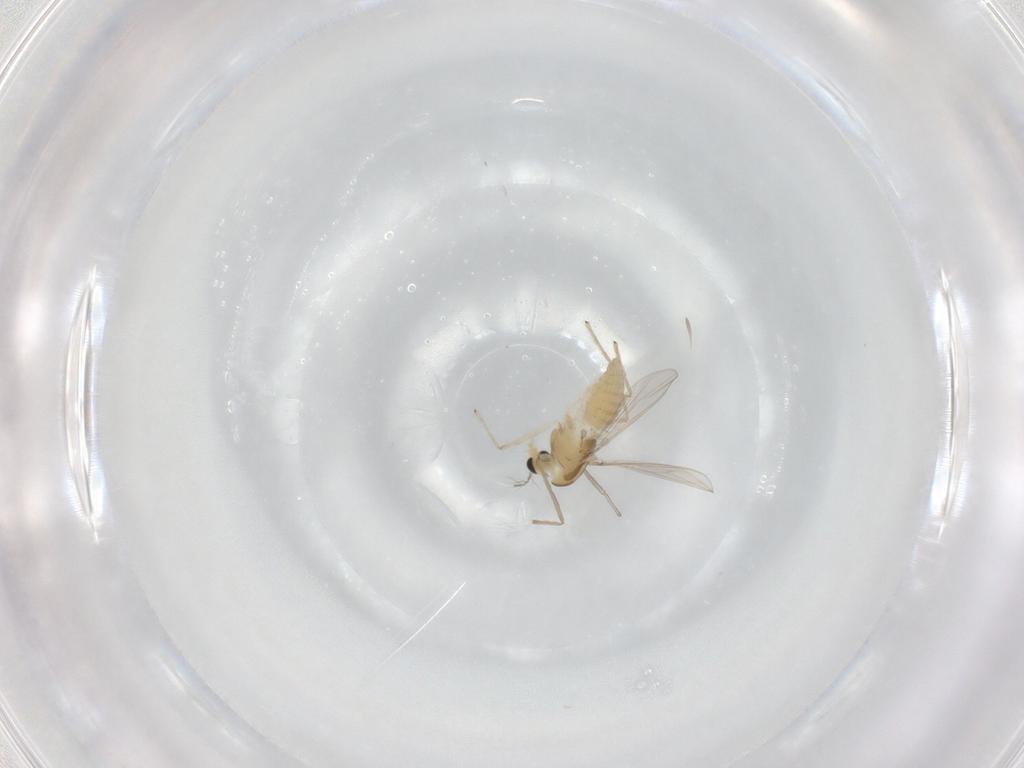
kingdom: Animalia
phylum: Arthropoda
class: Insecta
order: Diptera
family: Chironomidae
